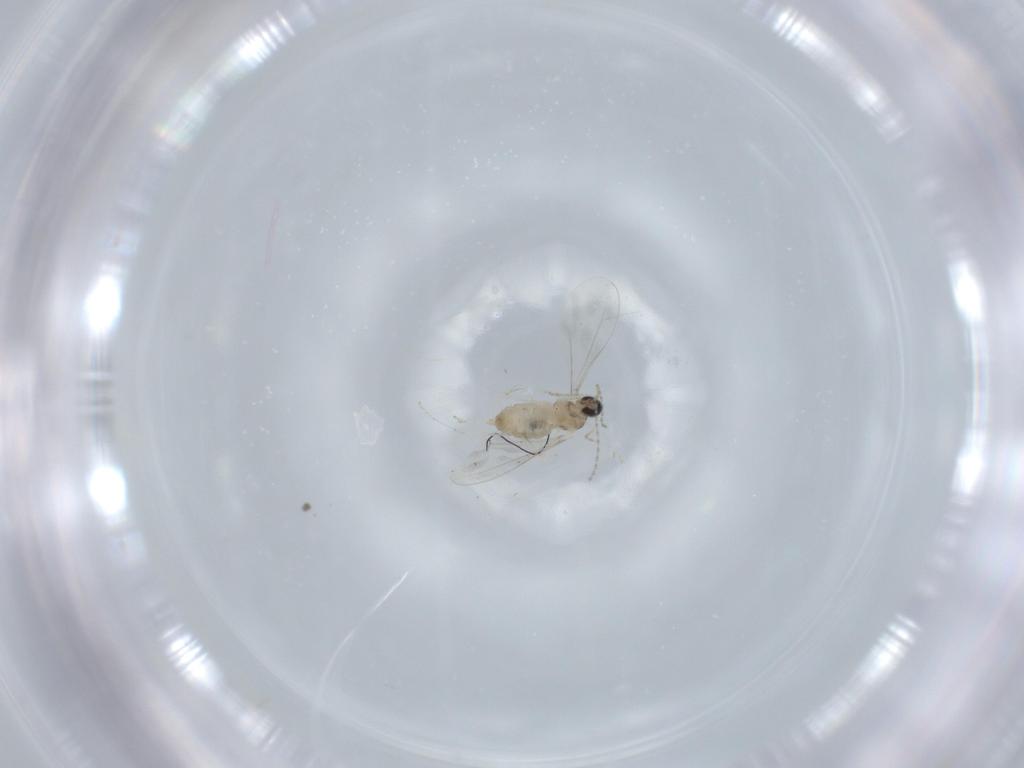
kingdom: Animalia
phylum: Arthropoda
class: Insecta
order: Diptera
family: Cecidomyiidae
